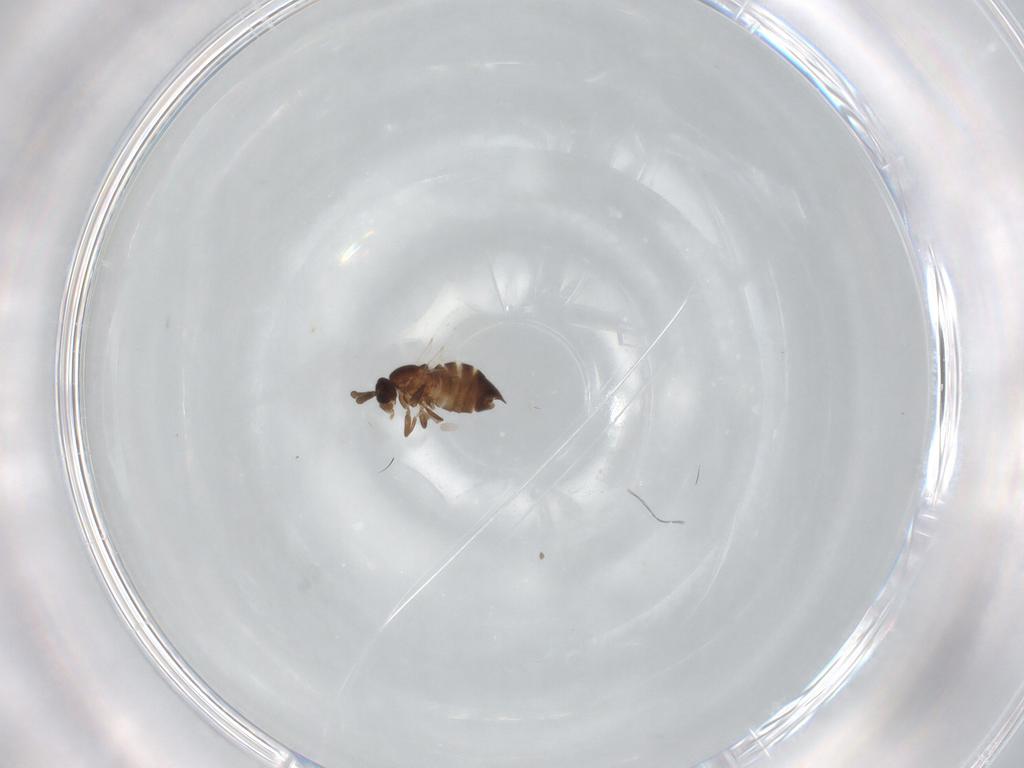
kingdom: Animalia
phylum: Arthropoda
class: Insecta
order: Diptera
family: Scatopsidae
